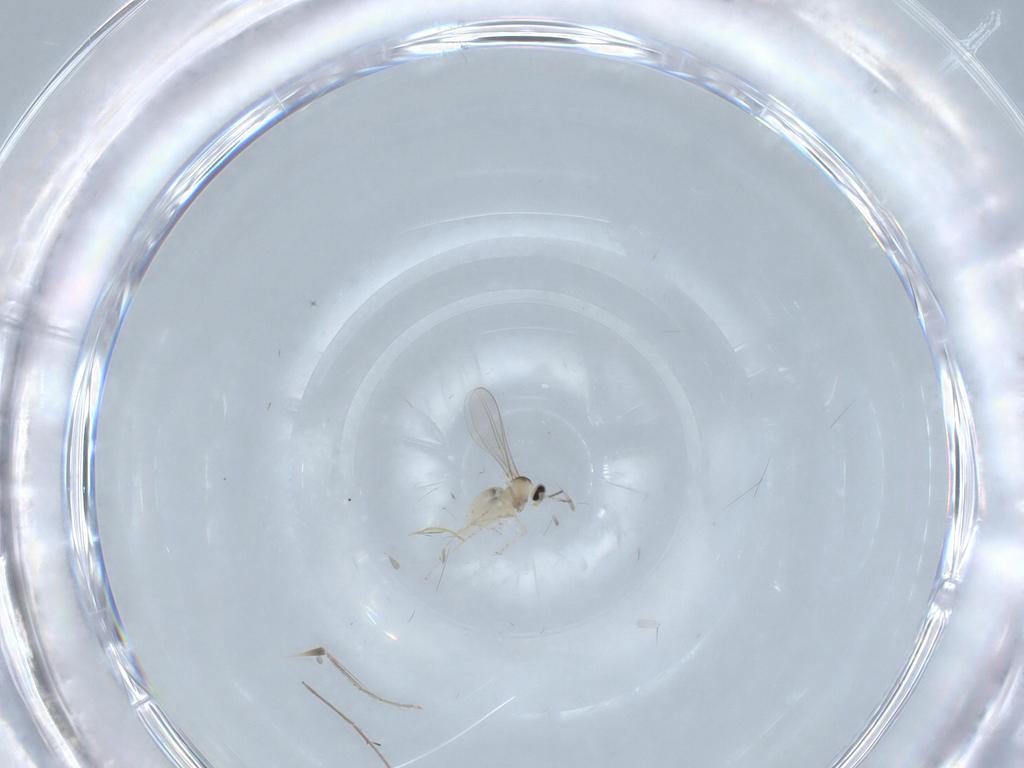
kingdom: Animalia
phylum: Arthropoda
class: Insecta
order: Diptera
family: Cecidomyiidae
